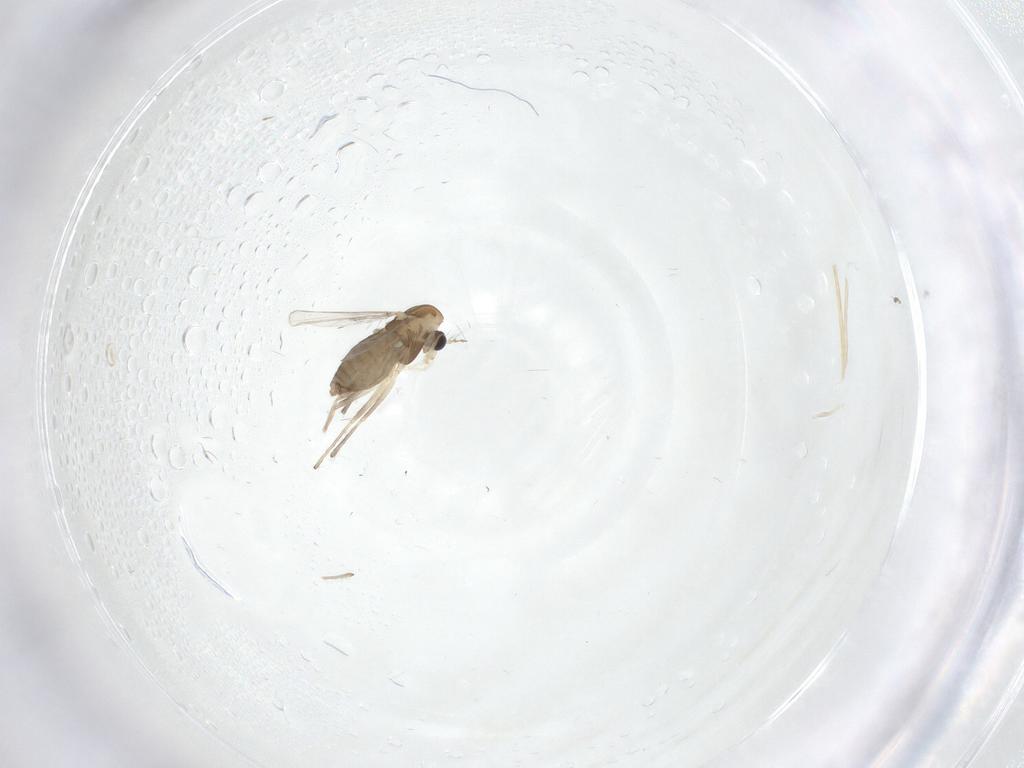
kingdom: Animalia
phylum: Arthropoda
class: Insecta
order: Diptera
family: Chironomidae
